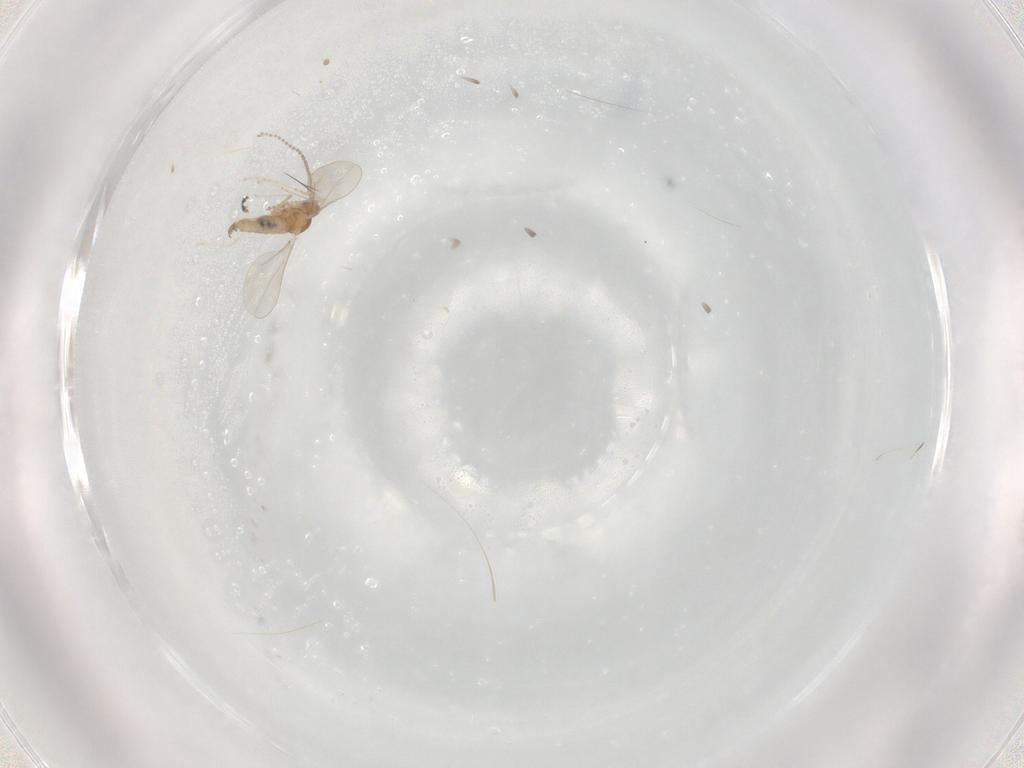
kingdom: Animalia
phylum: Arthropoda
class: Insecta
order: Diptera
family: Cecidomyiidae
